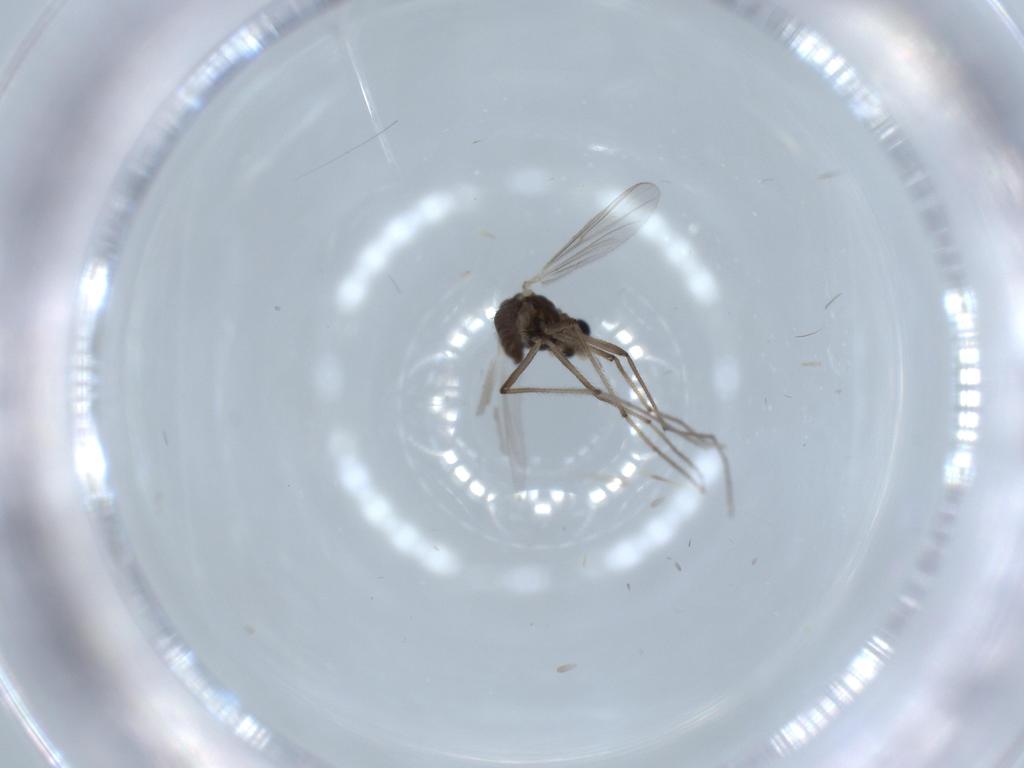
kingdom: Animalia
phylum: Arthropoda
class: Insecta
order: Diptera
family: Chironomidae
